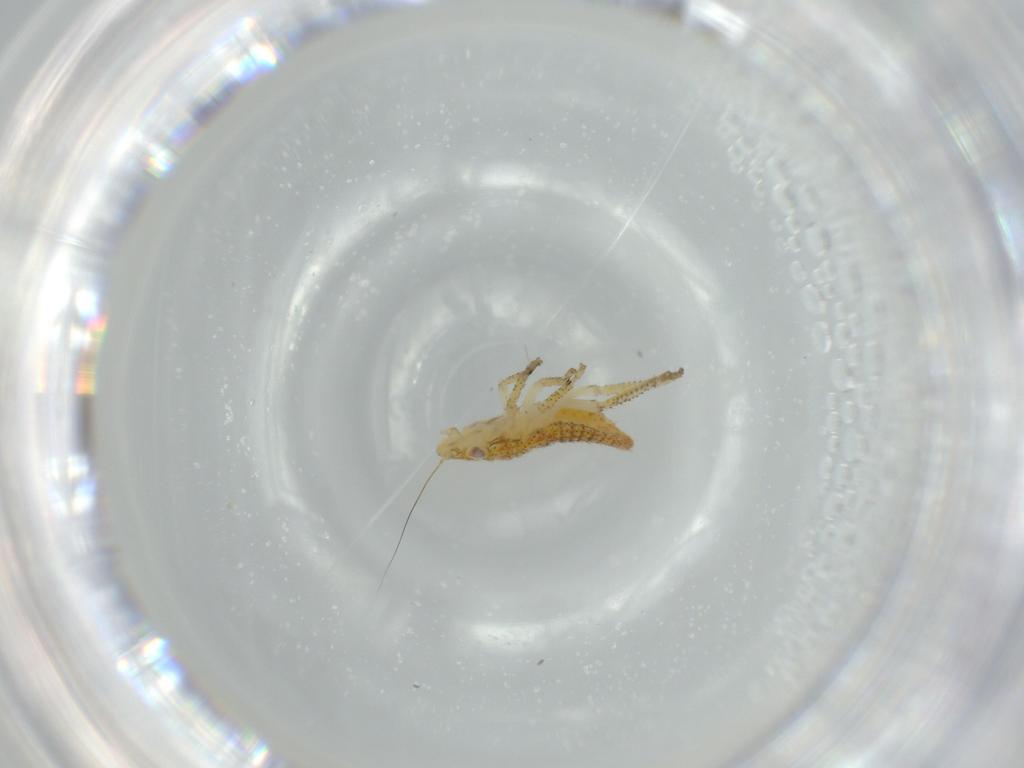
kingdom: Animalia
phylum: Arthropoda
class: Insecta
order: Hemiptera
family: Cicadellidae
